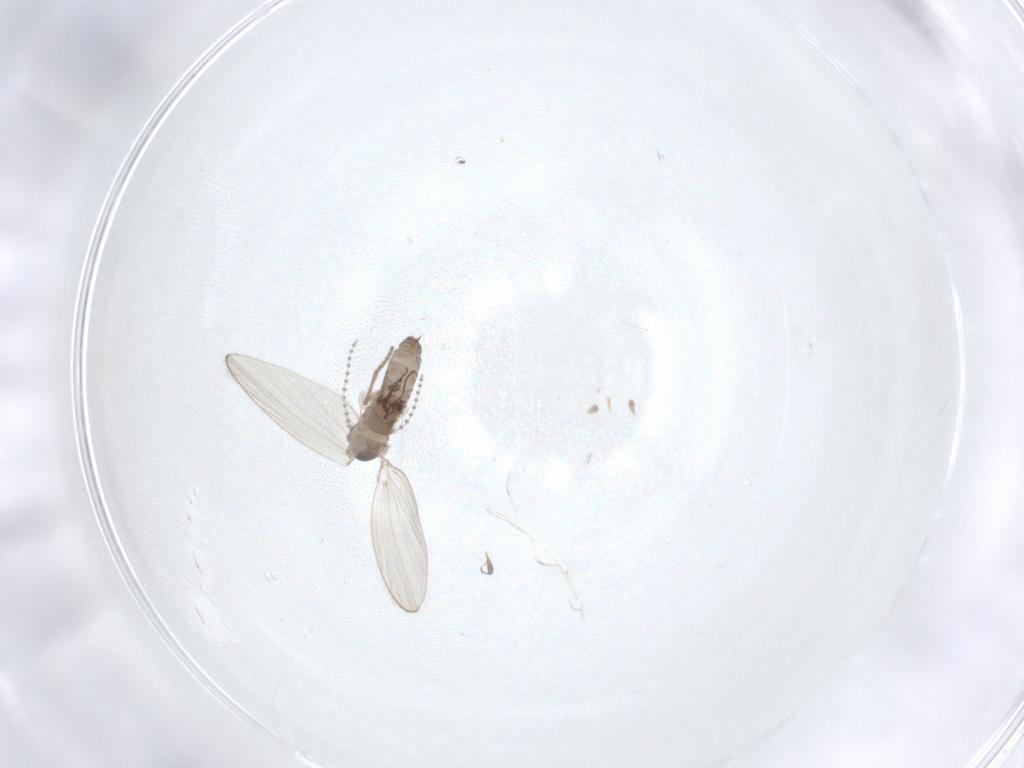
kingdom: Animalia
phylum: Arthropoda
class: Insecta
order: Diptera
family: Psychodidae
